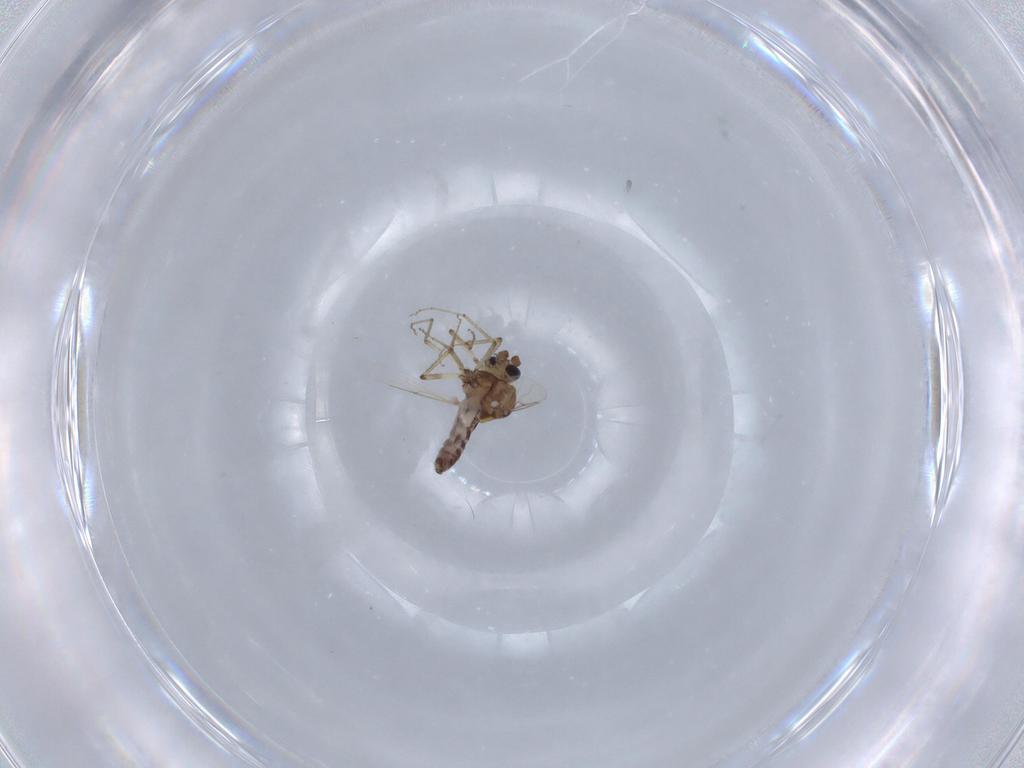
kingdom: Animalia
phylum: Arthropoda
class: Insecta
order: Diptera
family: Ceratopogonidae
